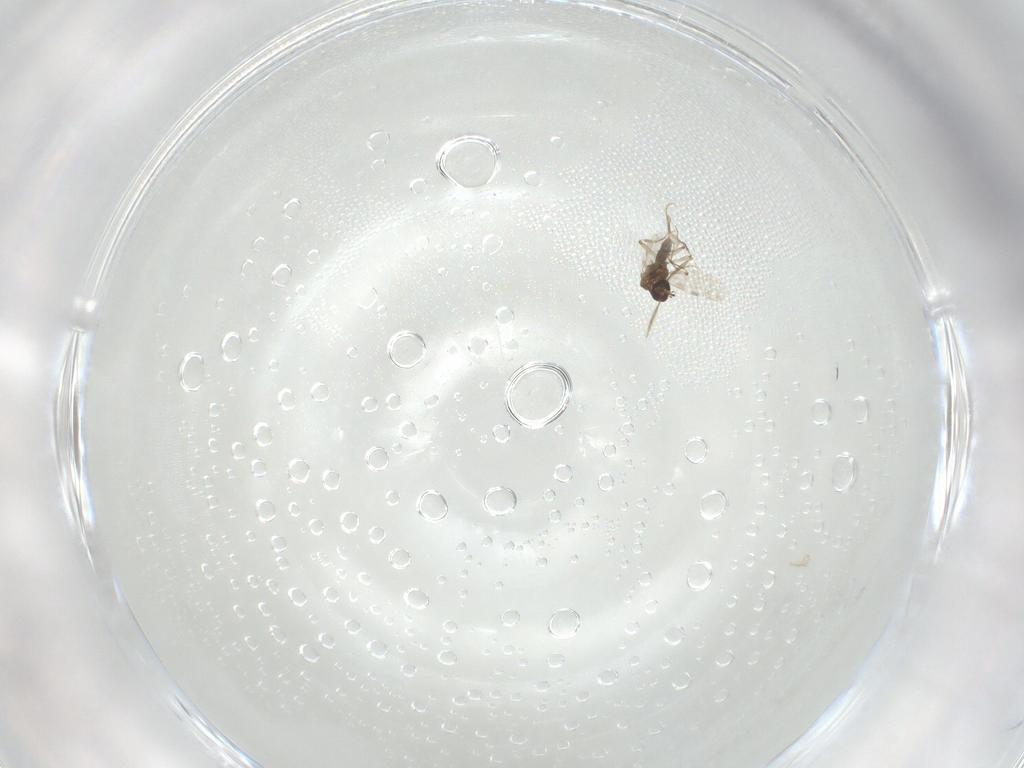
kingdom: Animalia
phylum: Arthropoda
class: Insecta
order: Diptera
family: Ceratopogonidae
